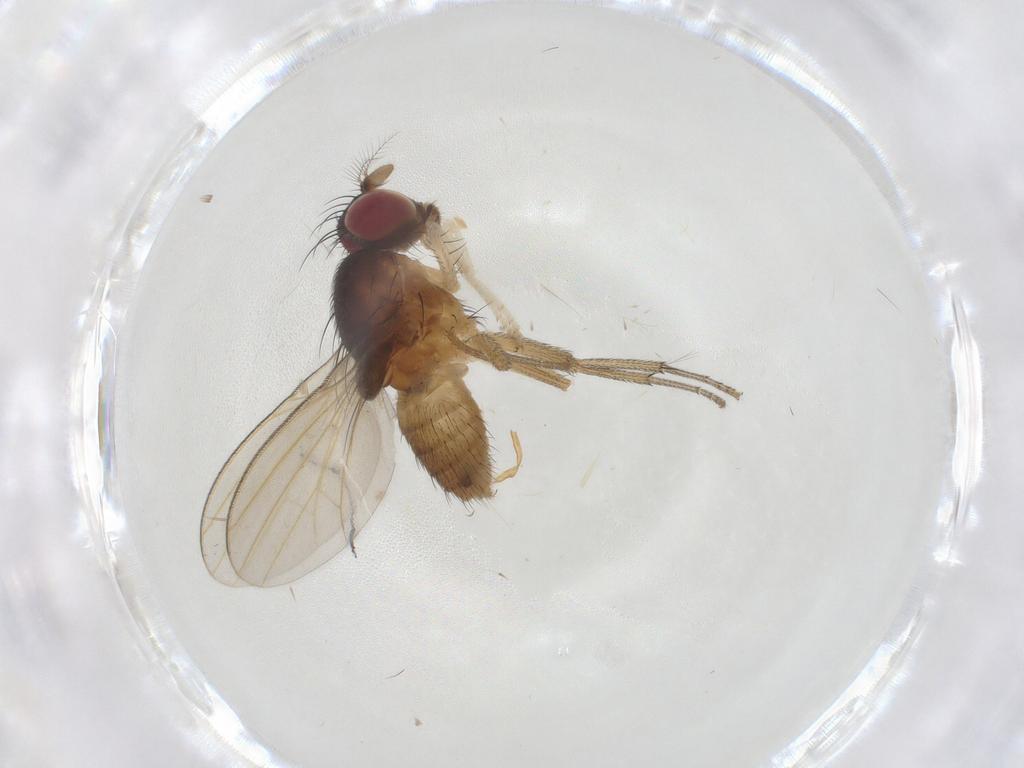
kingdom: Animalia
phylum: Arthropoda
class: Insecta
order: Diptera
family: Lauxaniidae
